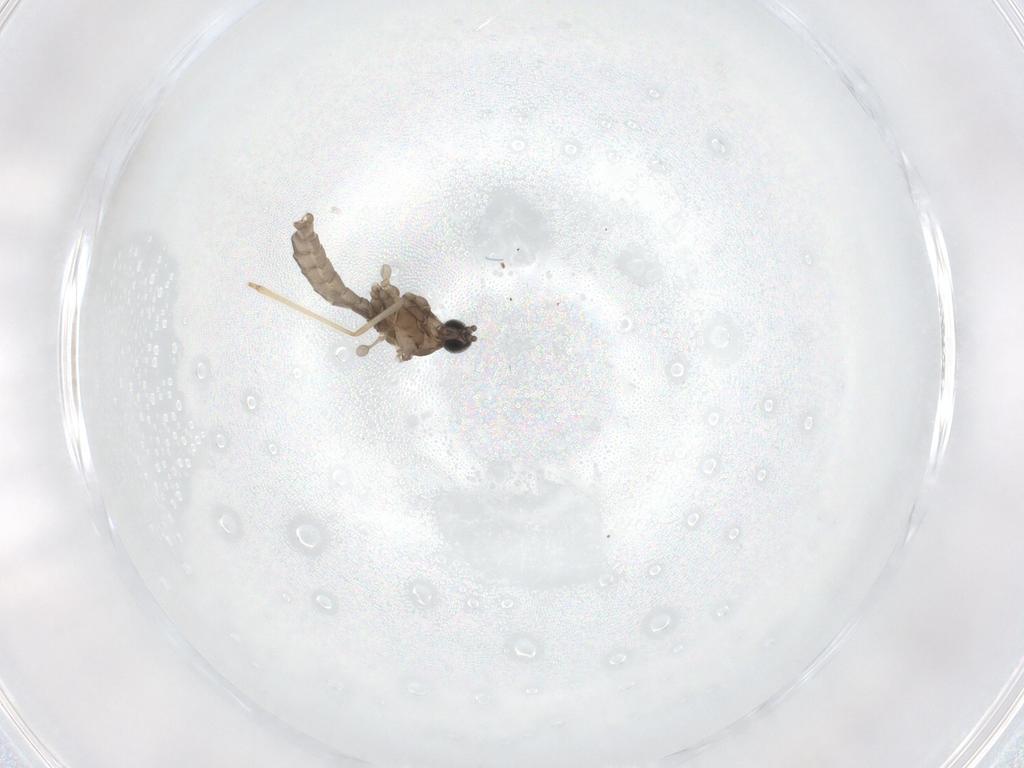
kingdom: Animalia
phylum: Arthropoda
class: Insecta
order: Diptera
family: Cecidomyiidae
